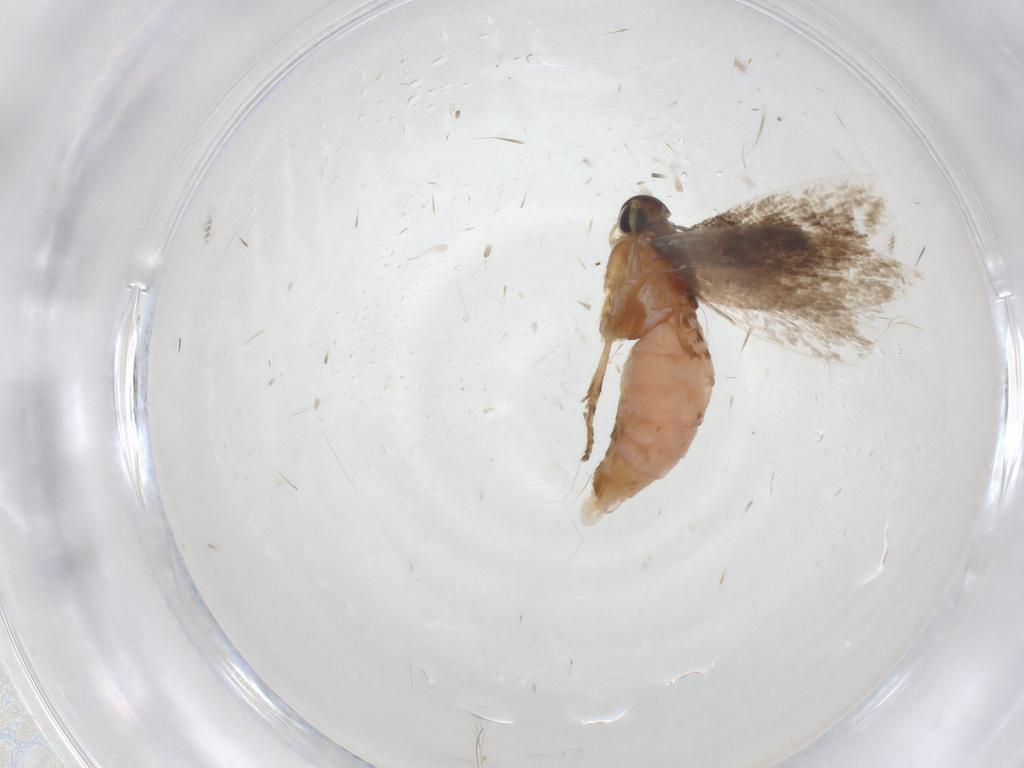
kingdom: Animalia
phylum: Arthropoda
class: Insecta
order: Lepidoptera
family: Gelechiidae
